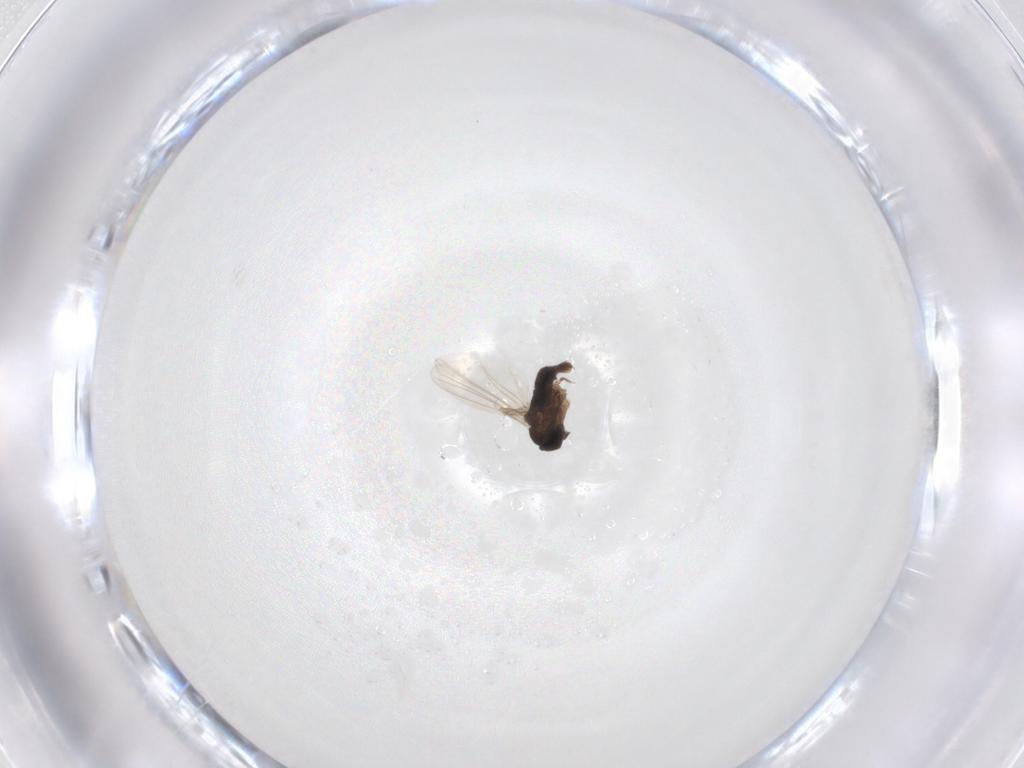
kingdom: Animalia
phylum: Arthropoda
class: Insecta
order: Diptera
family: Phoridae
